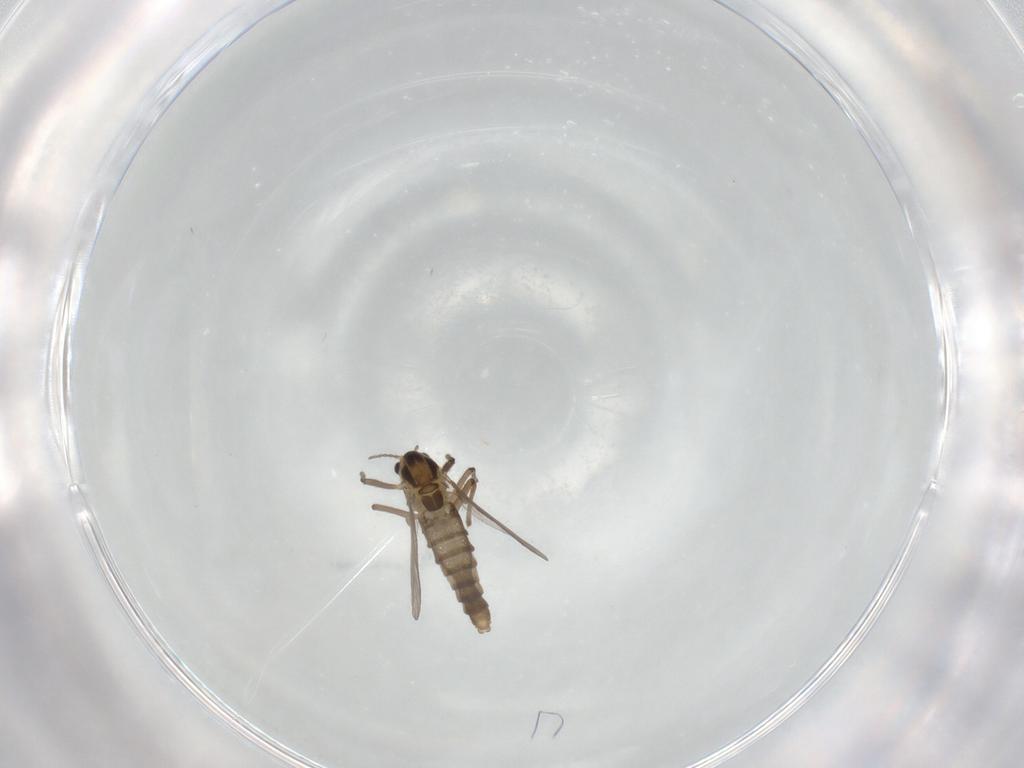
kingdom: Animalia
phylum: Arthropoda
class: Insecta
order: Diptera
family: Chironomidae
